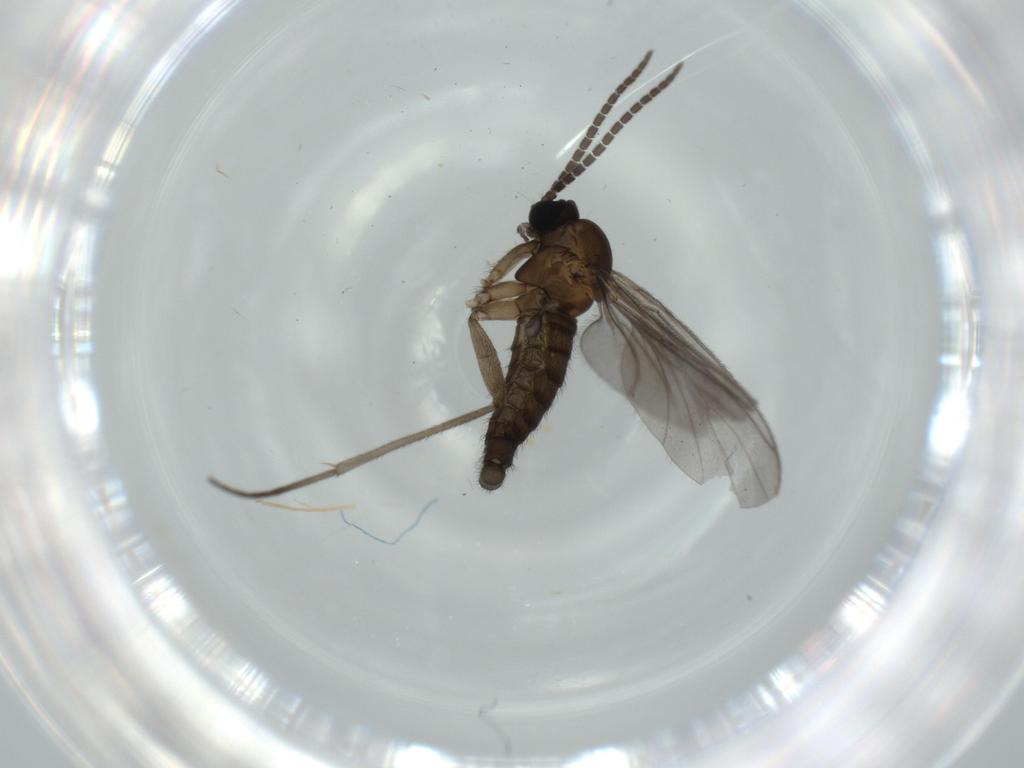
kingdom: Animalia
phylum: Arthropoda
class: Insecta
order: Diptera
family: Sciaridae
